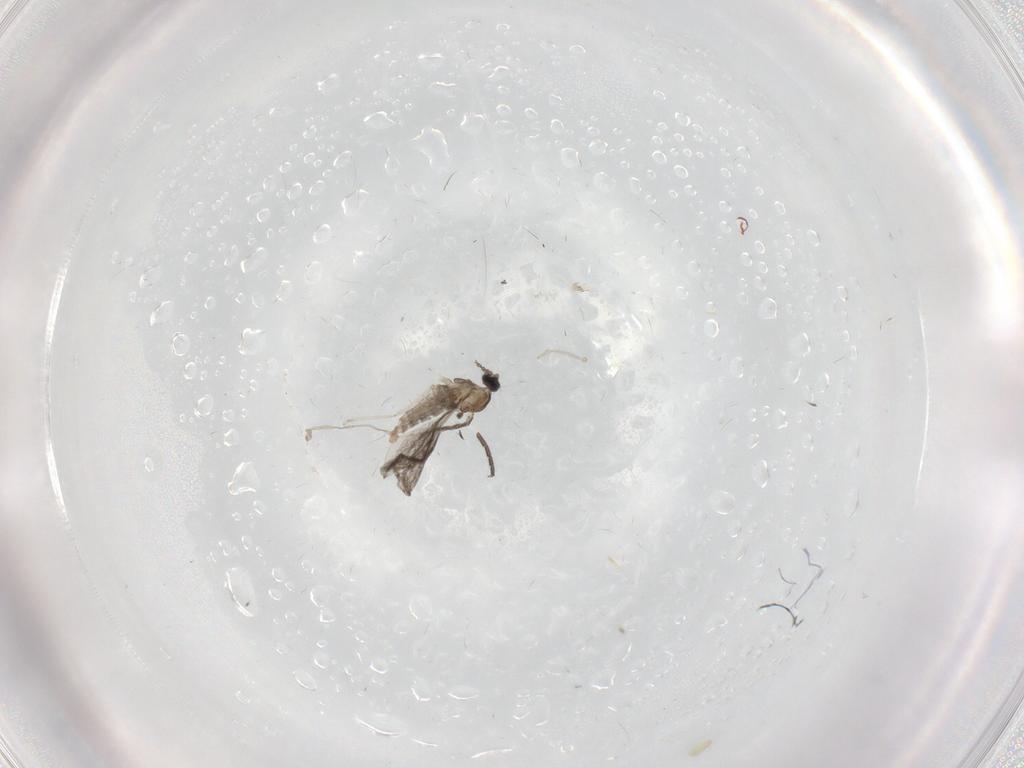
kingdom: Animalia
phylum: Arthropoda
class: Insecta
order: Diptera
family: Cecidomyiidae
